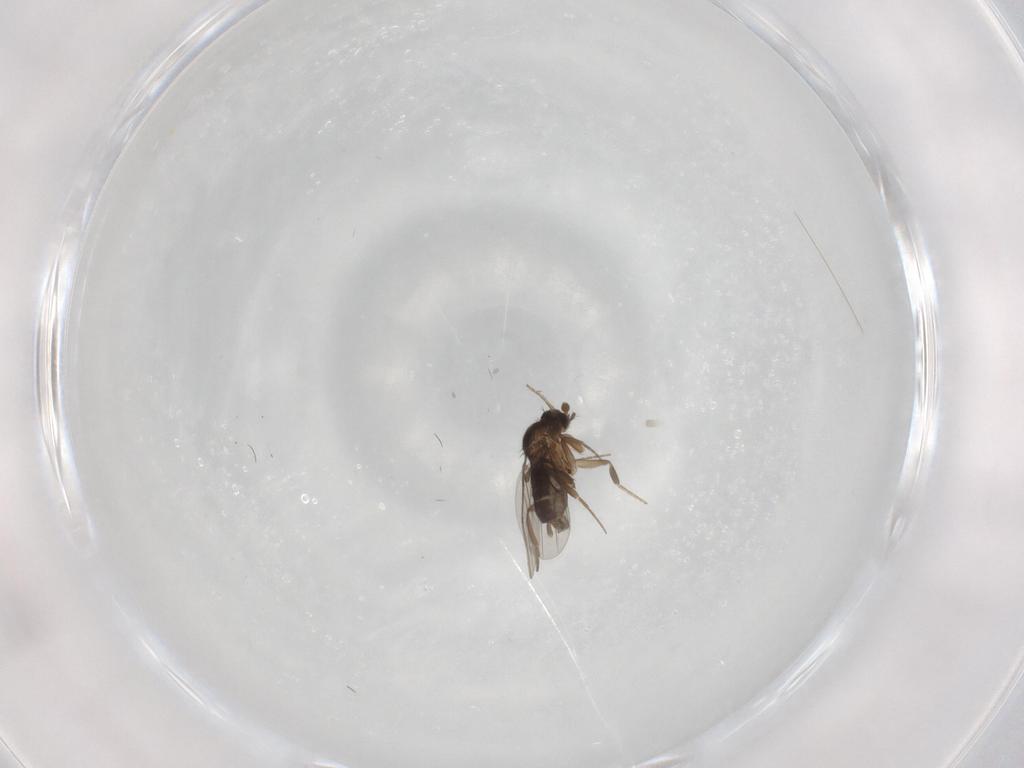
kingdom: Animalia
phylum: Arthropoda
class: Insecta
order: Diptera
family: Phoridae
